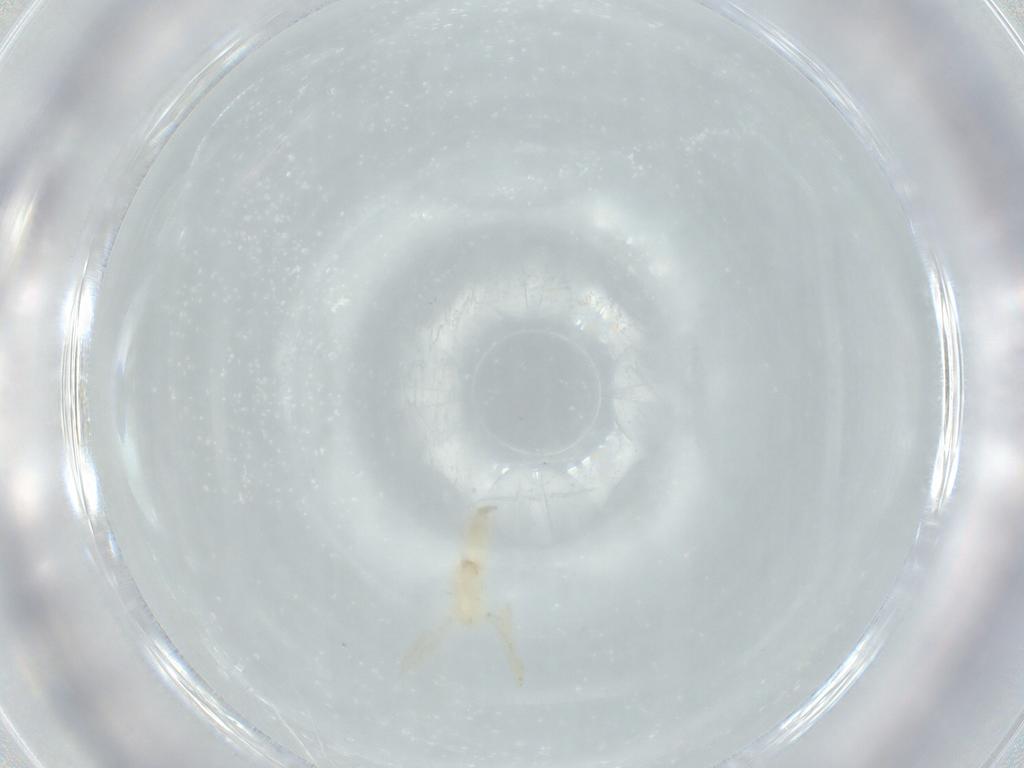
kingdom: Animalia
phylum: Arthropoda
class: Insecta
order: Diptera
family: Cecidomyiidae
